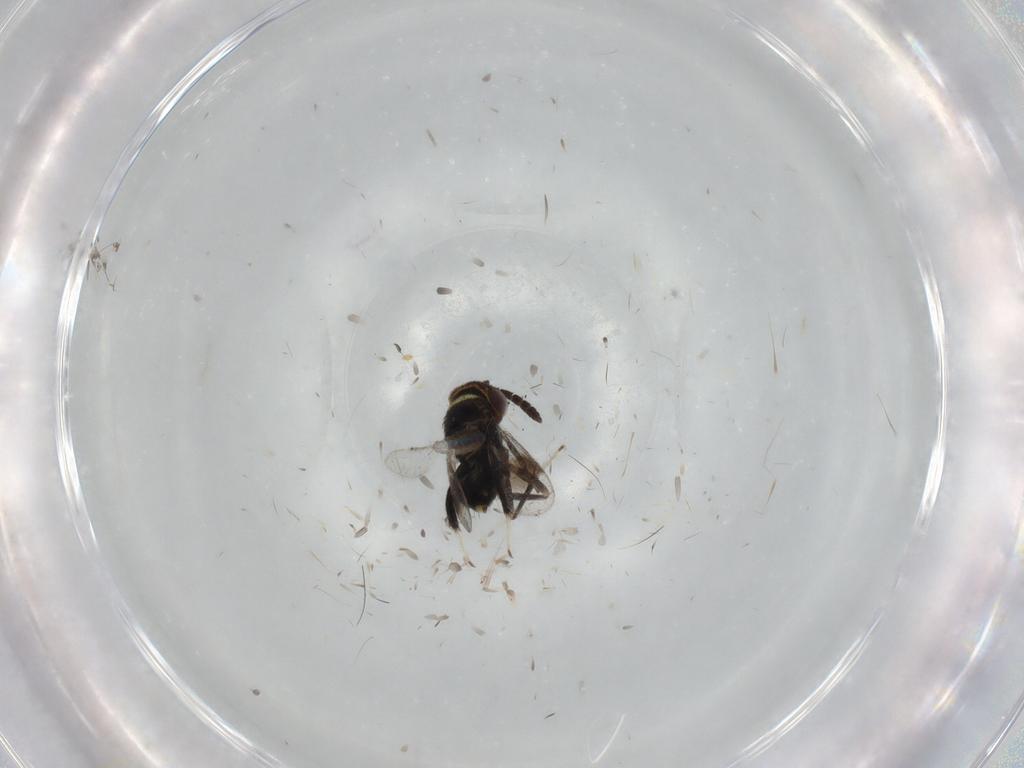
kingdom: Animalia
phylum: Arthropoda
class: Insecta
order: Hymenoptera
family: Aphelinidae
